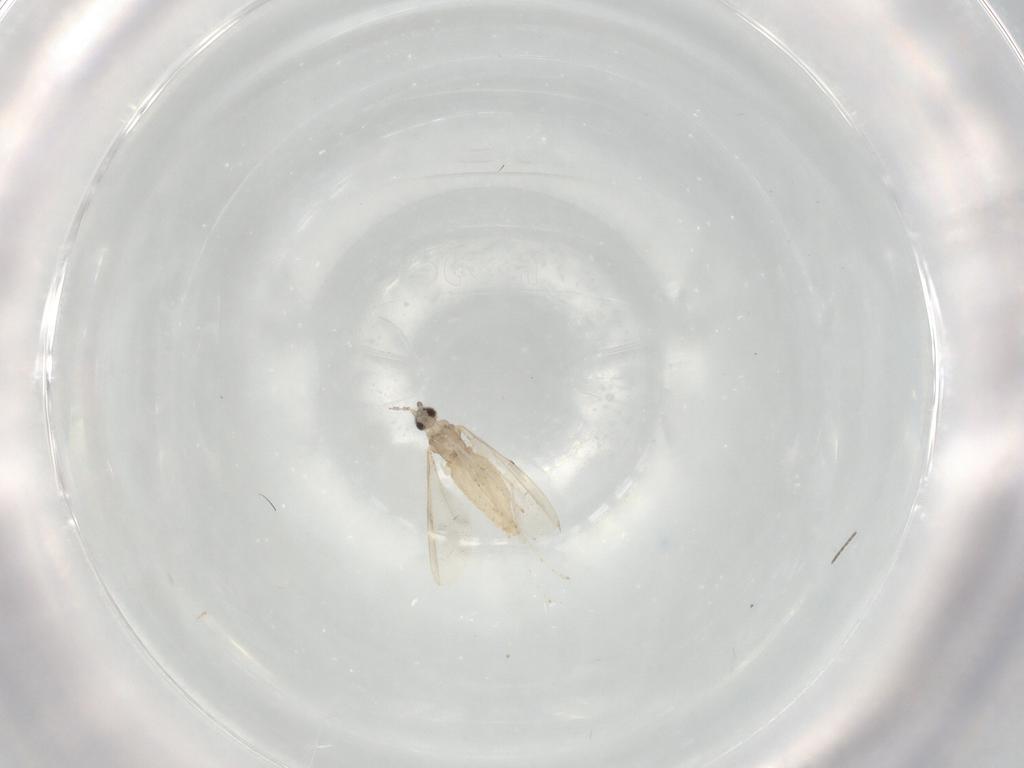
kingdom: Animalia
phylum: Arthropoda
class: Insecta
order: Diptera
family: Cecidomyiidae
